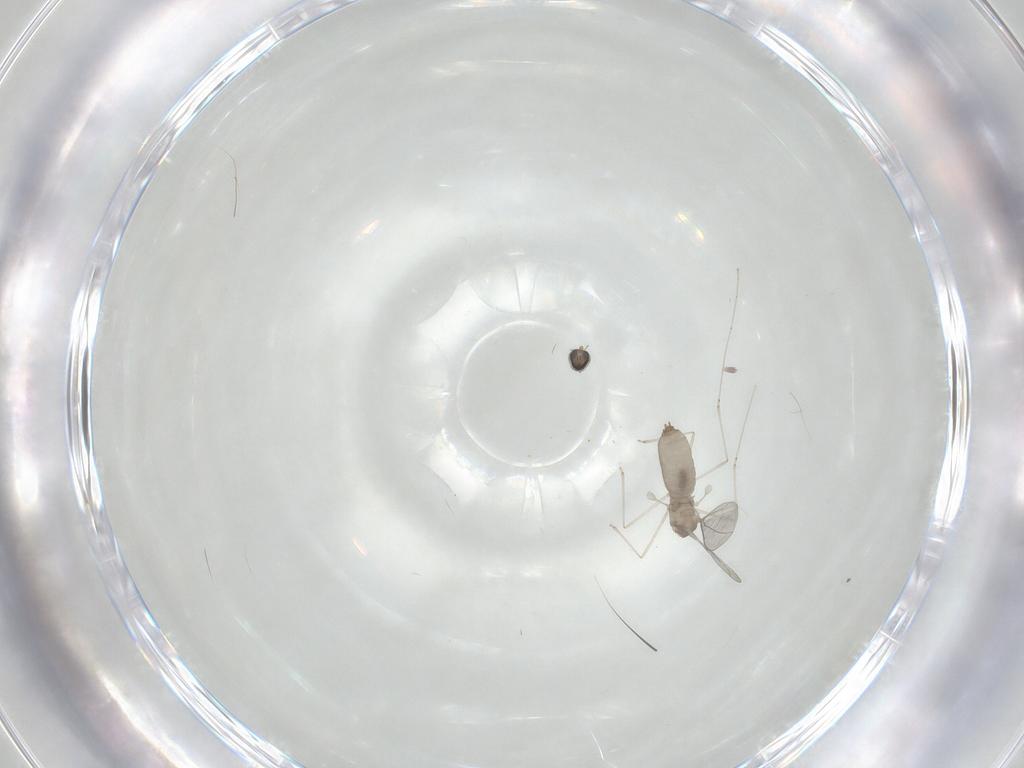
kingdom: Animalia
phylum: Arthropoda
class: Insecta
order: Diptera
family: Cecidomyiidae
